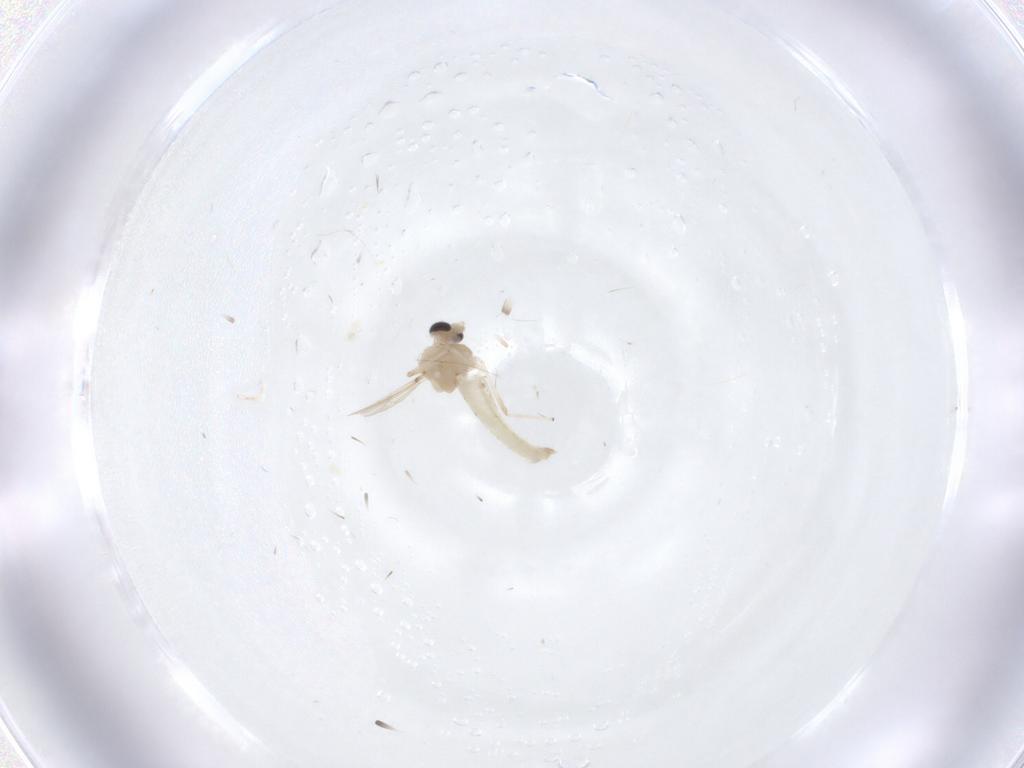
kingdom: Animalia
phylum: Arthropoda
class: Insecta
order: Diptera
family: Chironomidae
